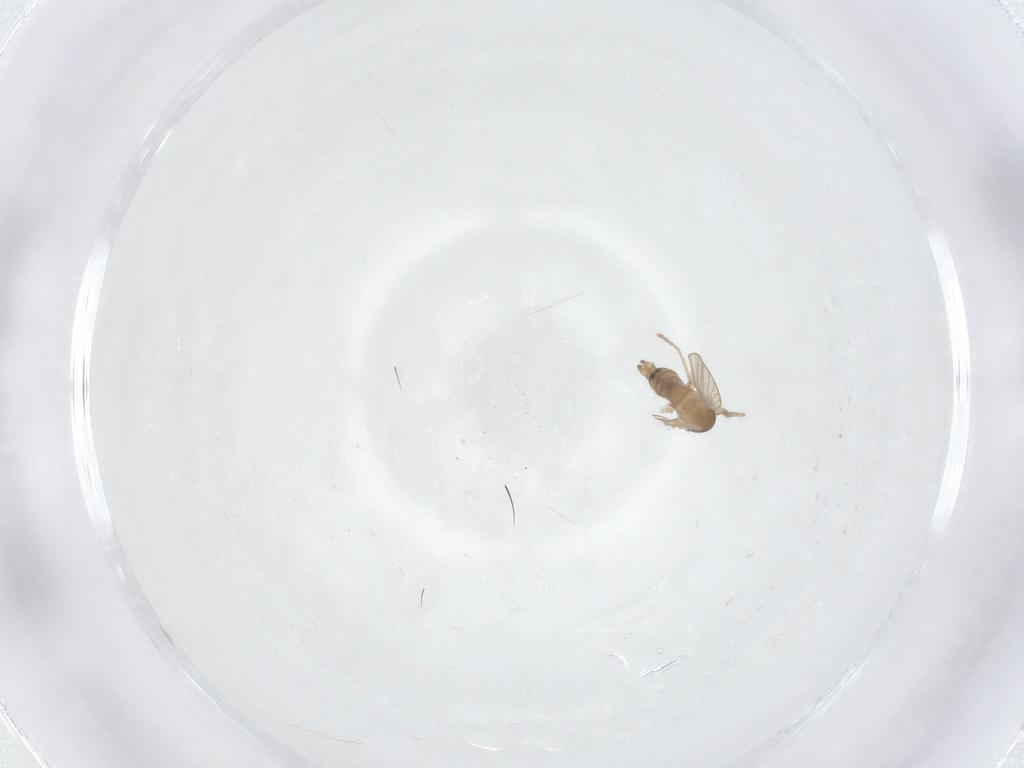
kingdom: Animalia
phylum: Arthropoda
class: Insecta
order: Diptera
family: Psychodidae
